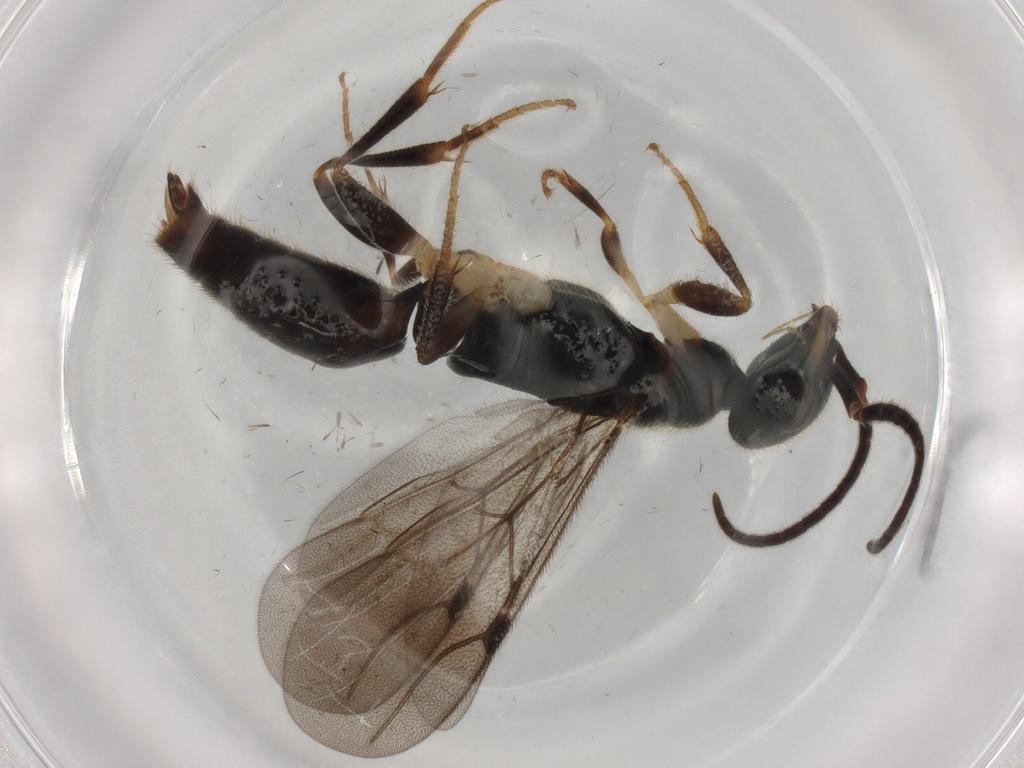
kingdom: Animalia
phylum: Arthropoda
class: Insecta
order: Hymenoptera
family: Bethylidae
